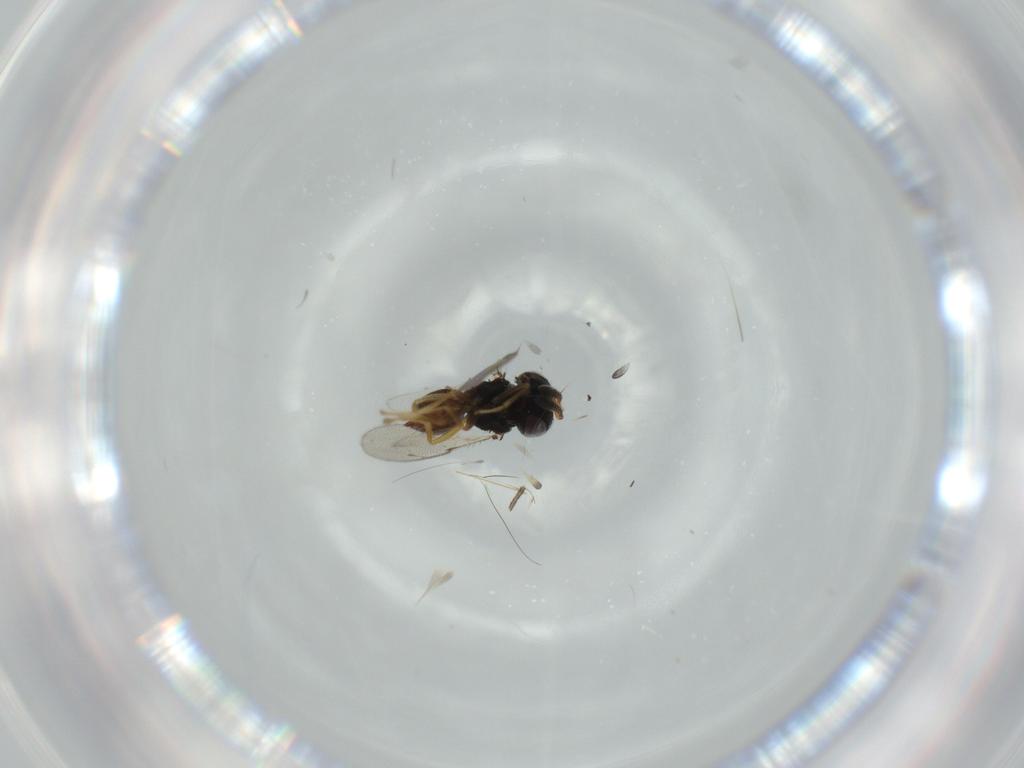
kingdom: Animalia
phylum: Arthropoda
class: Insecta
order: Hymenoptera
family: Pteromalidae
